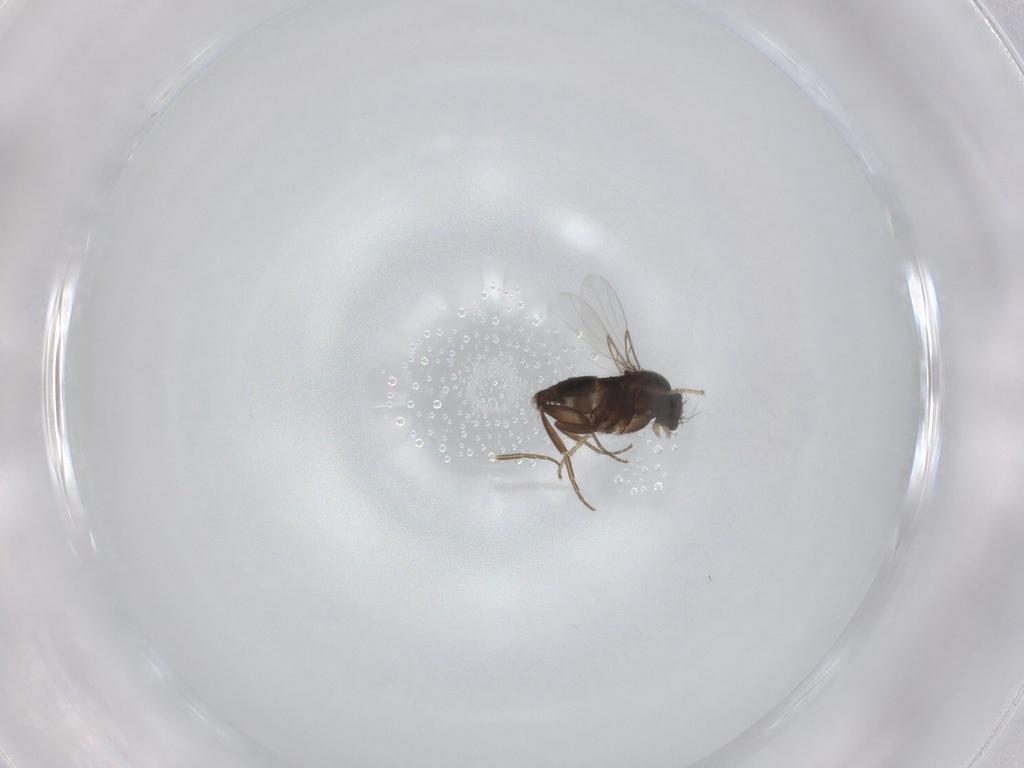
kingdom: Animalia
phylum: Arthropoda
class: Insecta
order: Diptera
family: Phoridae
